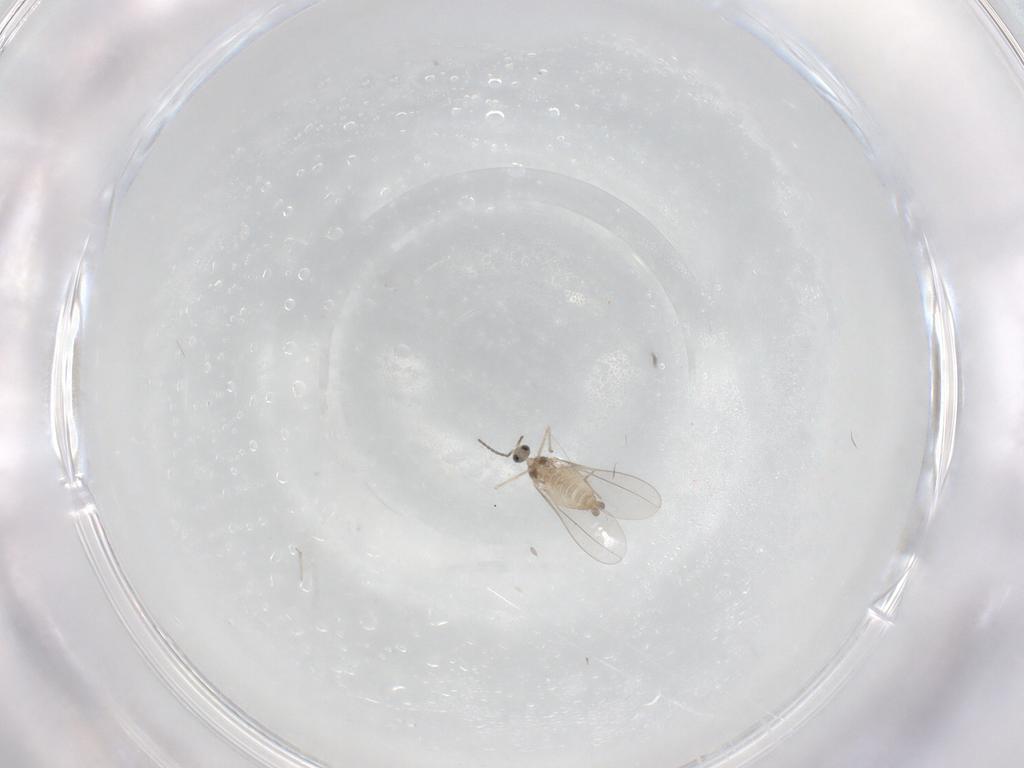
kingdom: Animalia
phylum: Arthropoda
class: Insecta
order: Diptera
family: Cecidomyiidae
